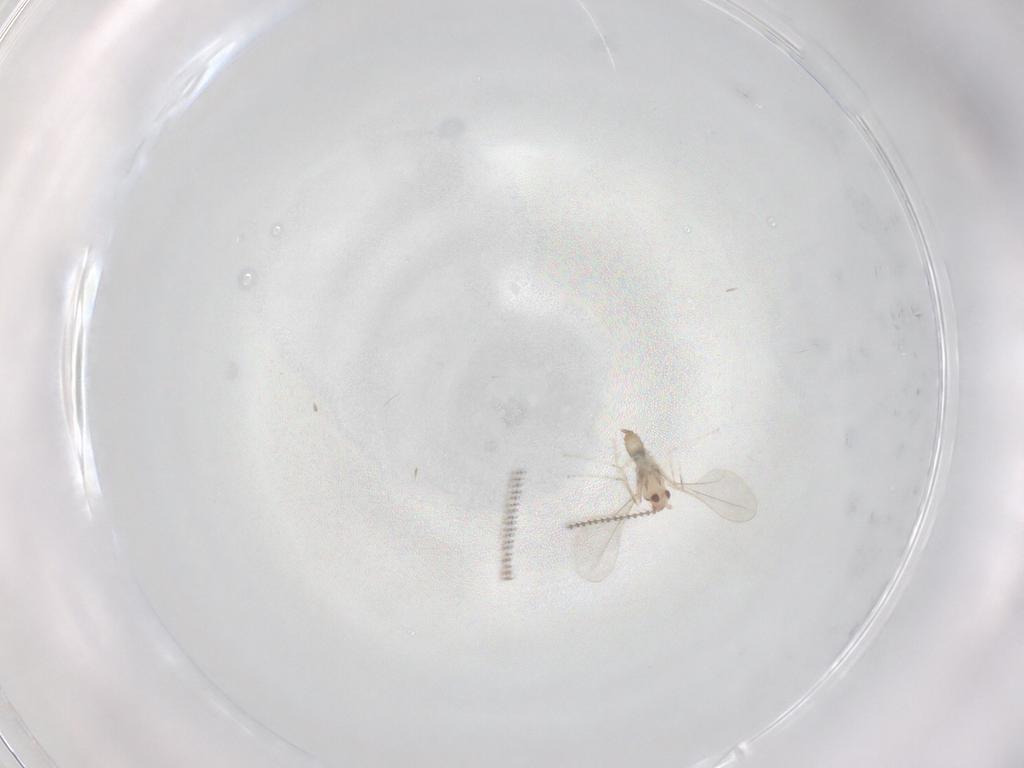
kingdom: Animalia
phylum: Arthropoda
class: Insecta
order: Diptera
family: Cecidomyiidae
